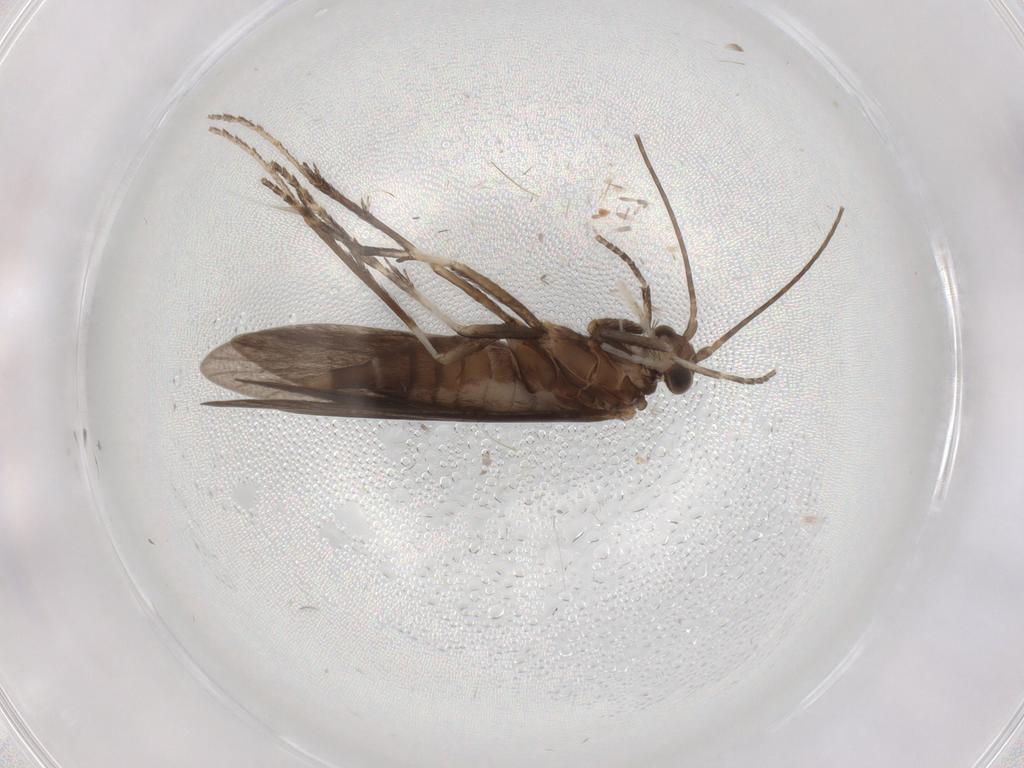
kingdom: Animalia
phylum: Arthropoda
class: Insecta
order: Trichoptera
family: Xiphocentronidae
